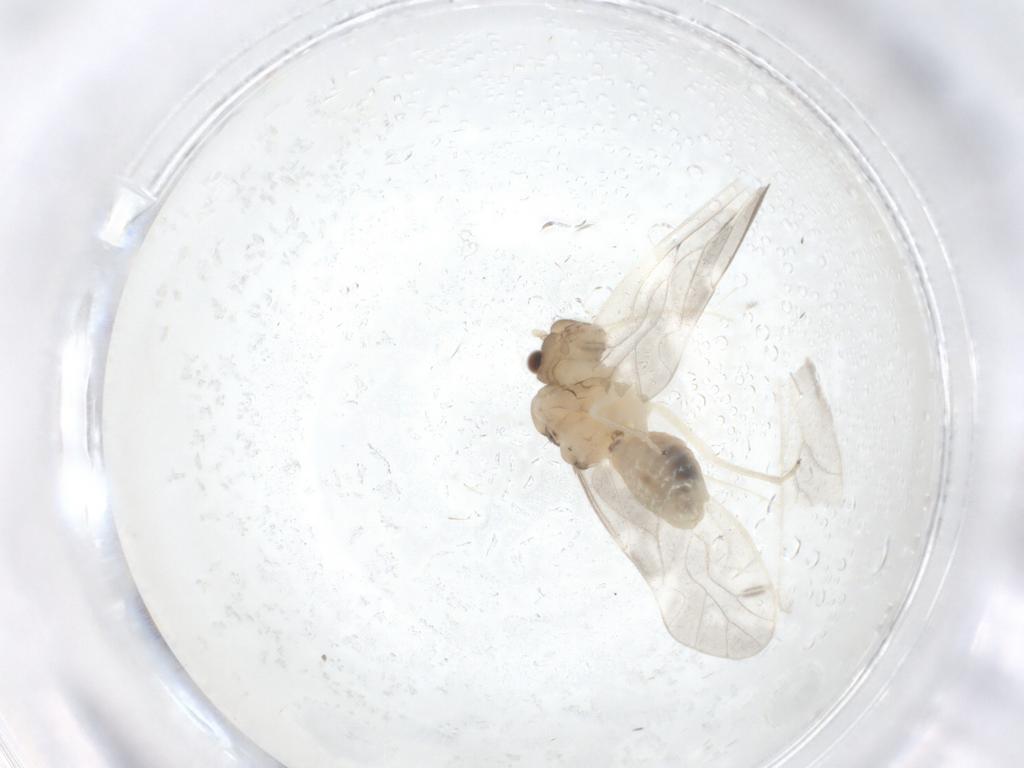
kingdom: Animalia
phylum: Arthropoda
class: Insecta
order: Psocodea
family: Caeciliusidae
